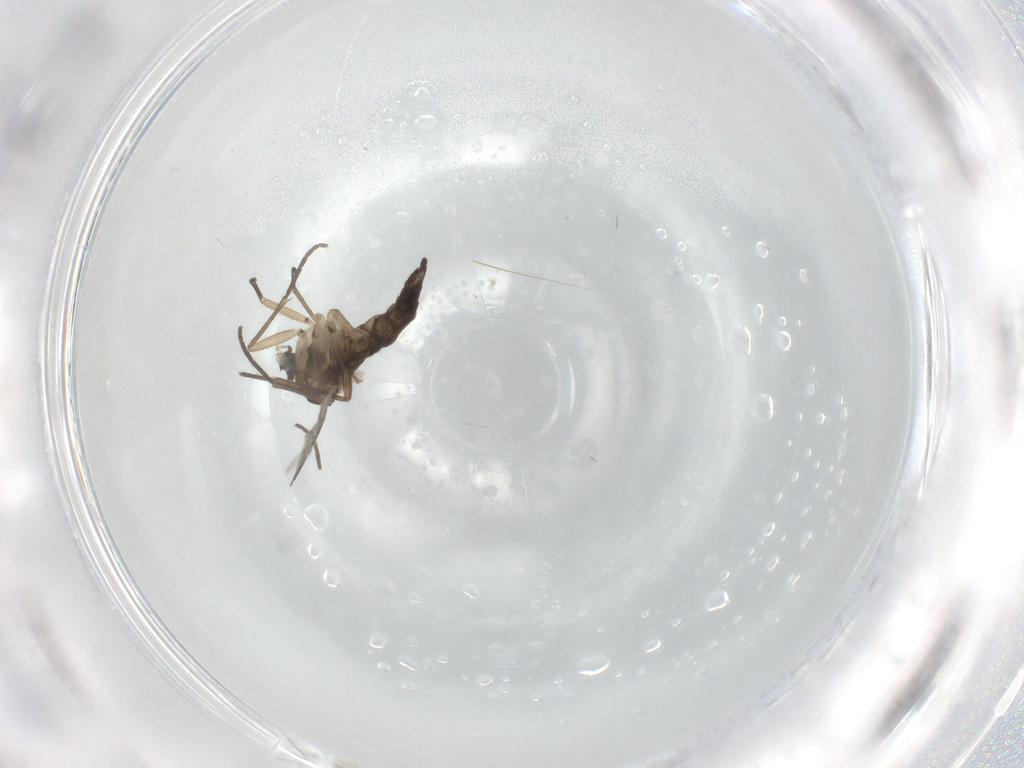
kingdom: Animalia
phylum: Arthropoda
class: Insecta
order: Diptera
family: Sciaridae
